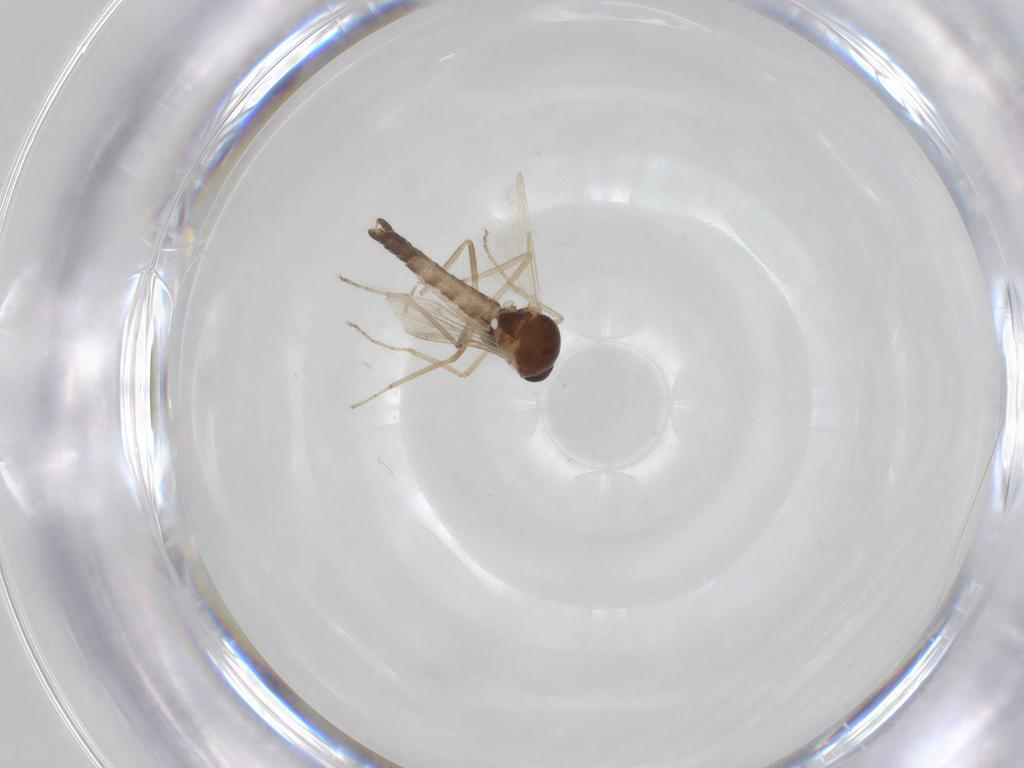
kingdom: Animalia
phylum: Arthropoda
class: Insecta
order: Diptera
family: Ceratopogonidae
